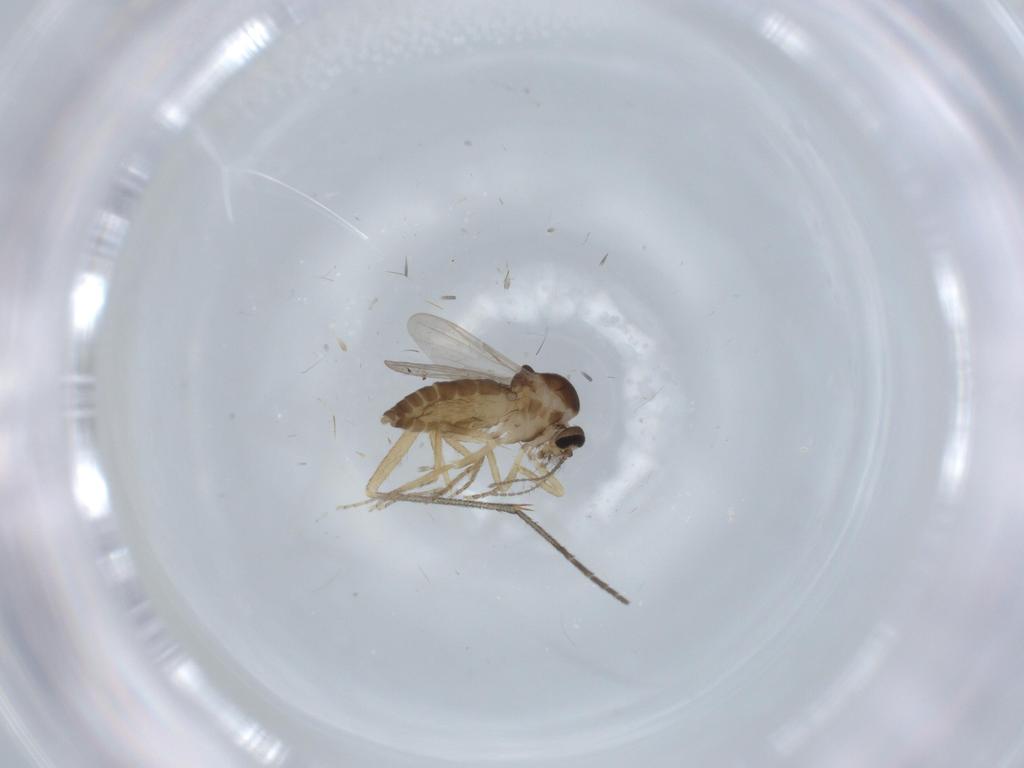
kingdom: Animalia
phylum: Arthropoda
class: Insecta
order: Diptera
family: Ceratopogonidae
